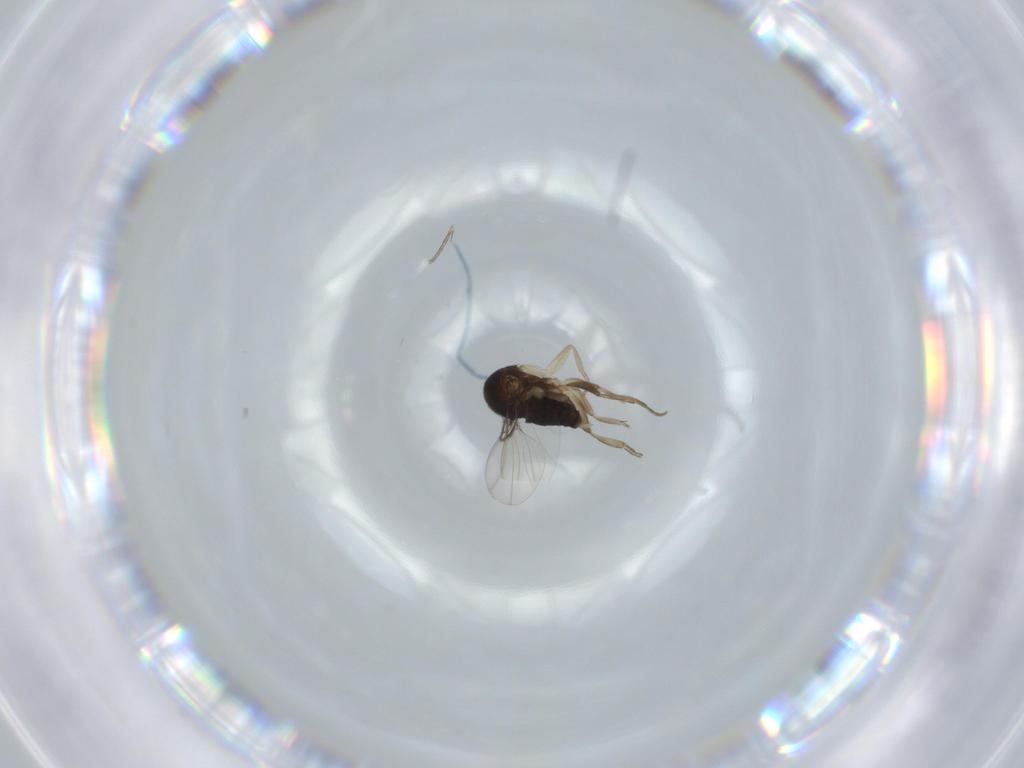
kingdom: Animalia
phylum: Arthropoda
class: Insecta
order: Diptera
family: Phoridae
